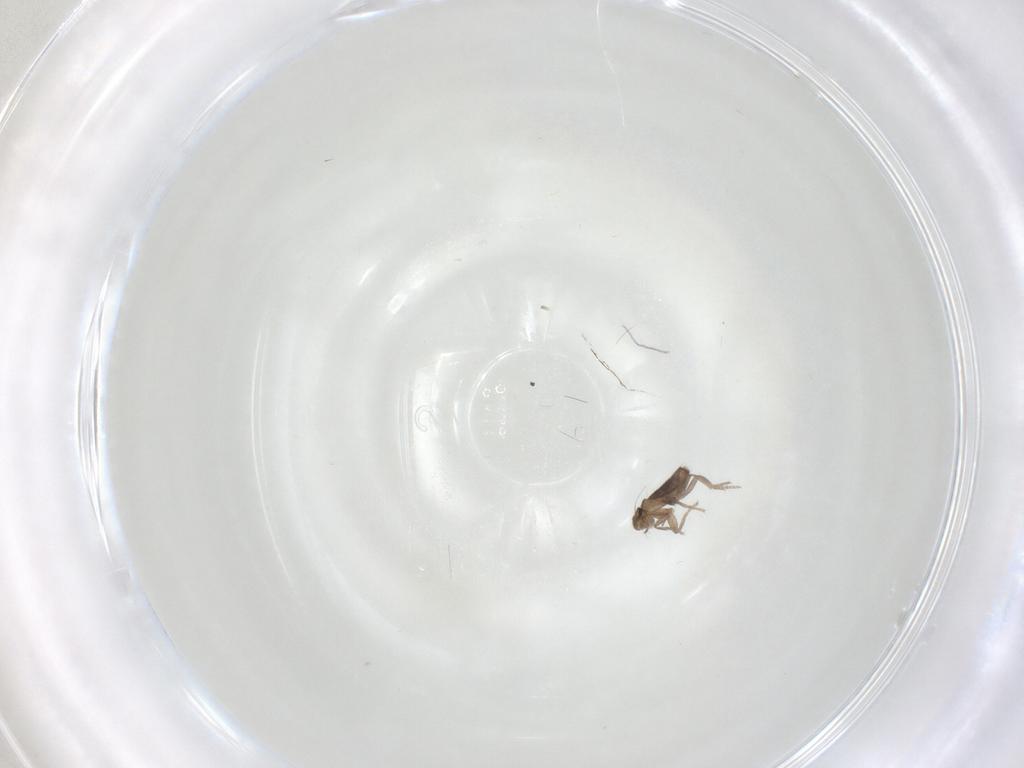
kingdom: Animalia
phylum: Arthropoda
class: Insecta
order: Diptera
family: Phoridae
